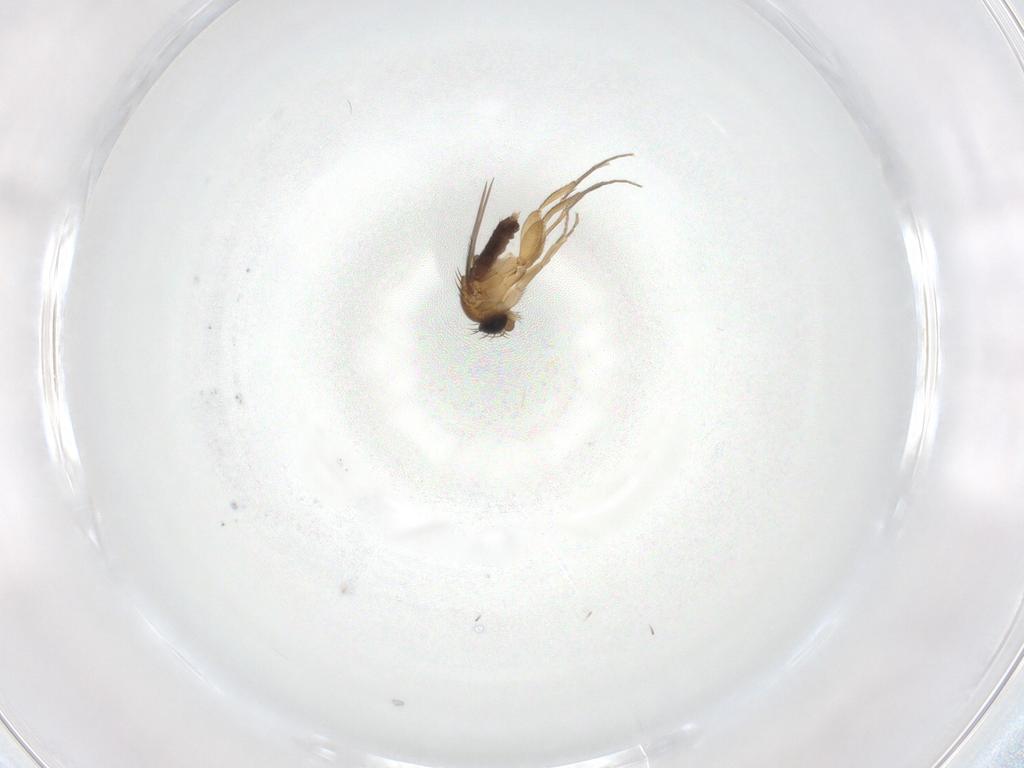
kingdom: Animalia
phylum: Arthropoda
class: Insecta
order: Diptera
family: Phoridae
